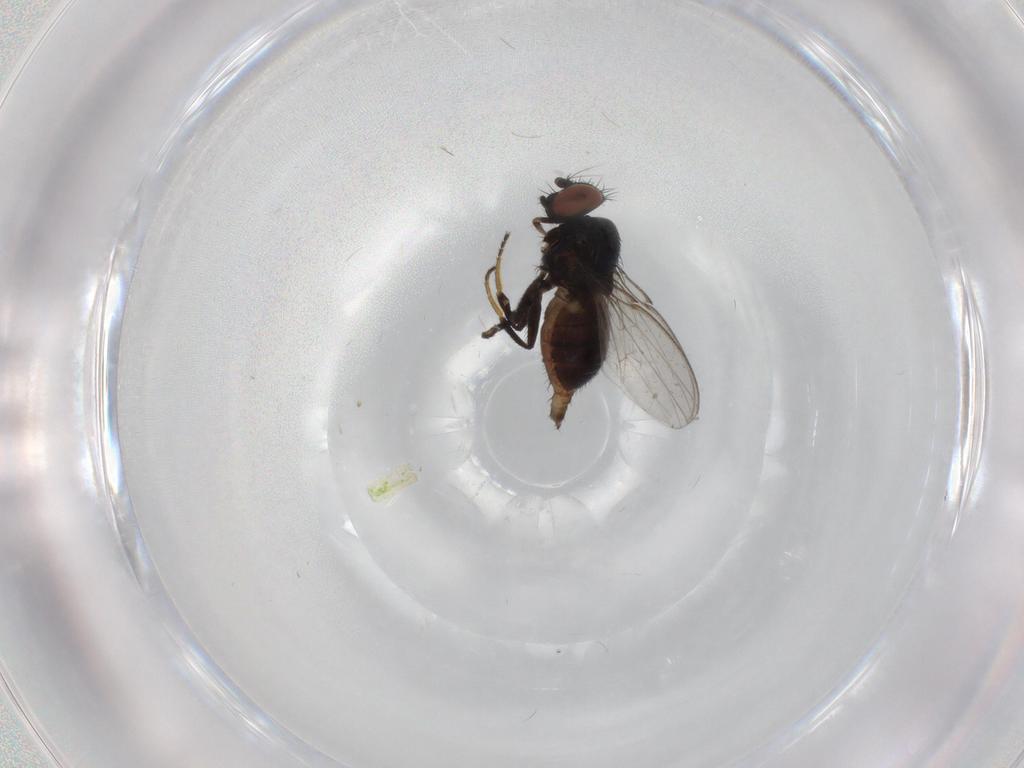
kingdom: Animalia
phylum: Arthropoda
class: Insecta
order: Diptera
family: Milichiidae
